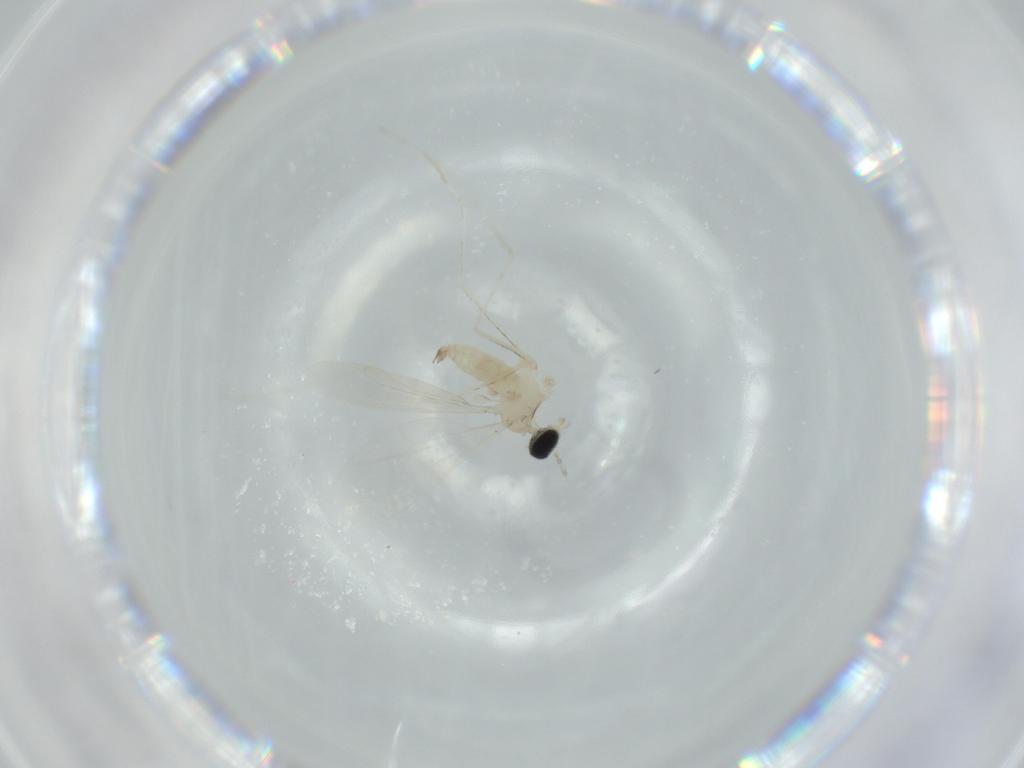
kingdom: Animalia
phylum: Arthropoda
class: Insecta
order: Diptera
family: Cecidomyiidae
